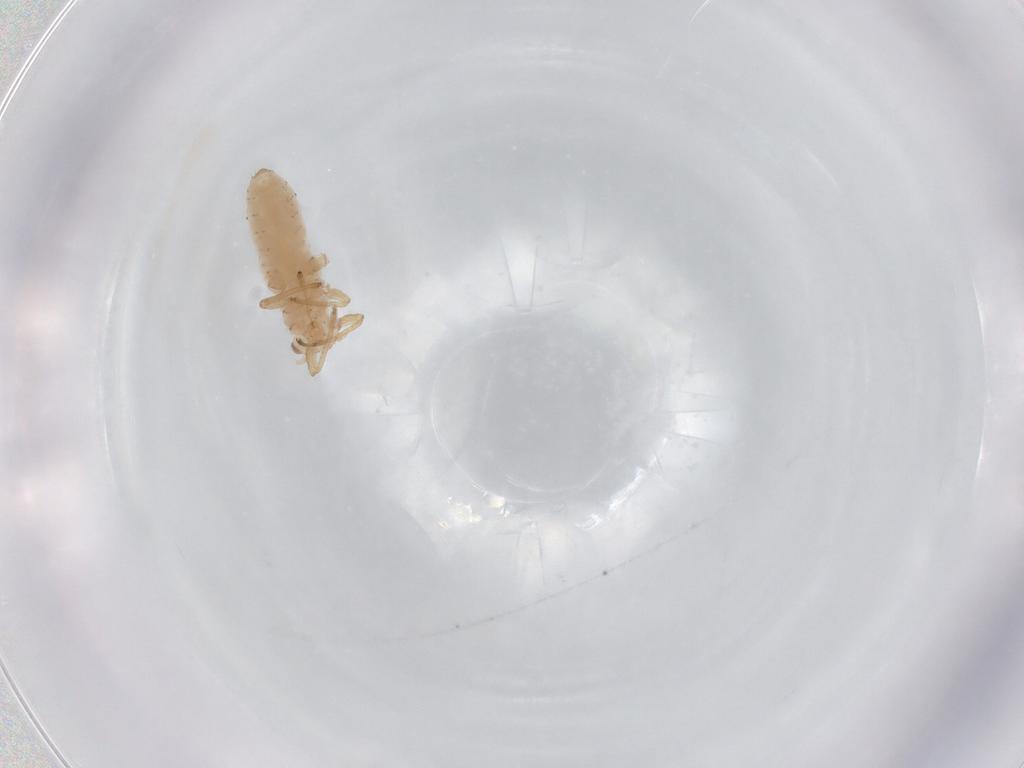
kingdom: Animalia
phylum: Arthropoda
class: Insecta
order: Hemiptera
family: Aphididae
